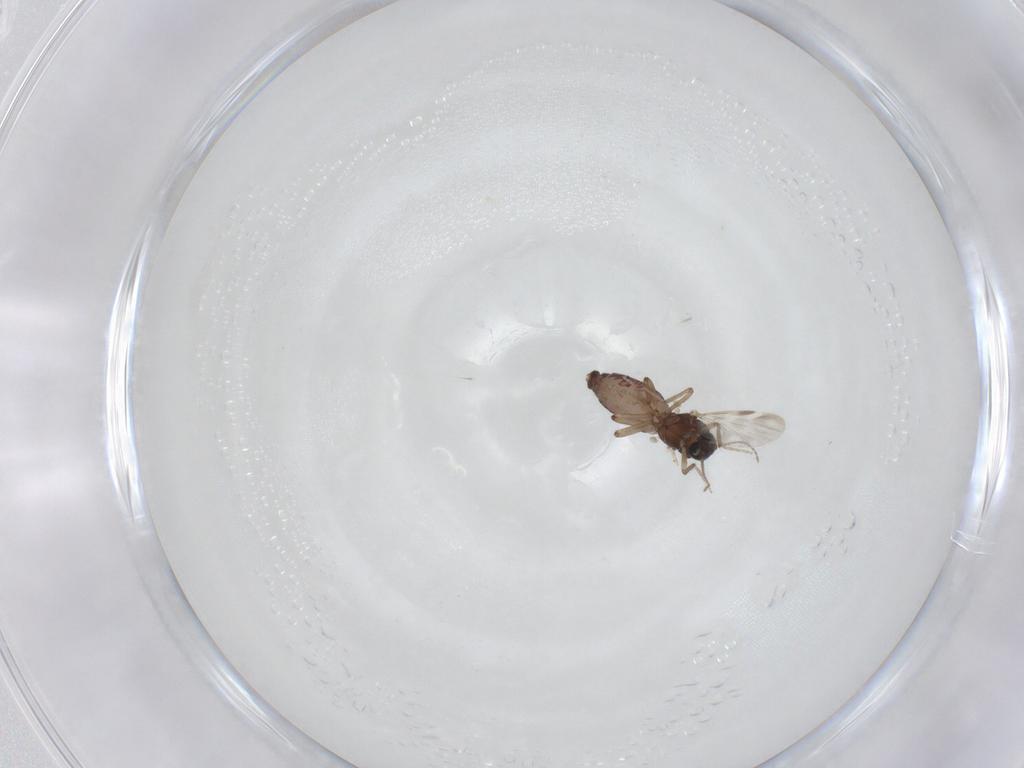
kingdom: Animalia
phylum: Arthropoda
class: Insecta
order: Diptera
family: Ceratopogonidae
